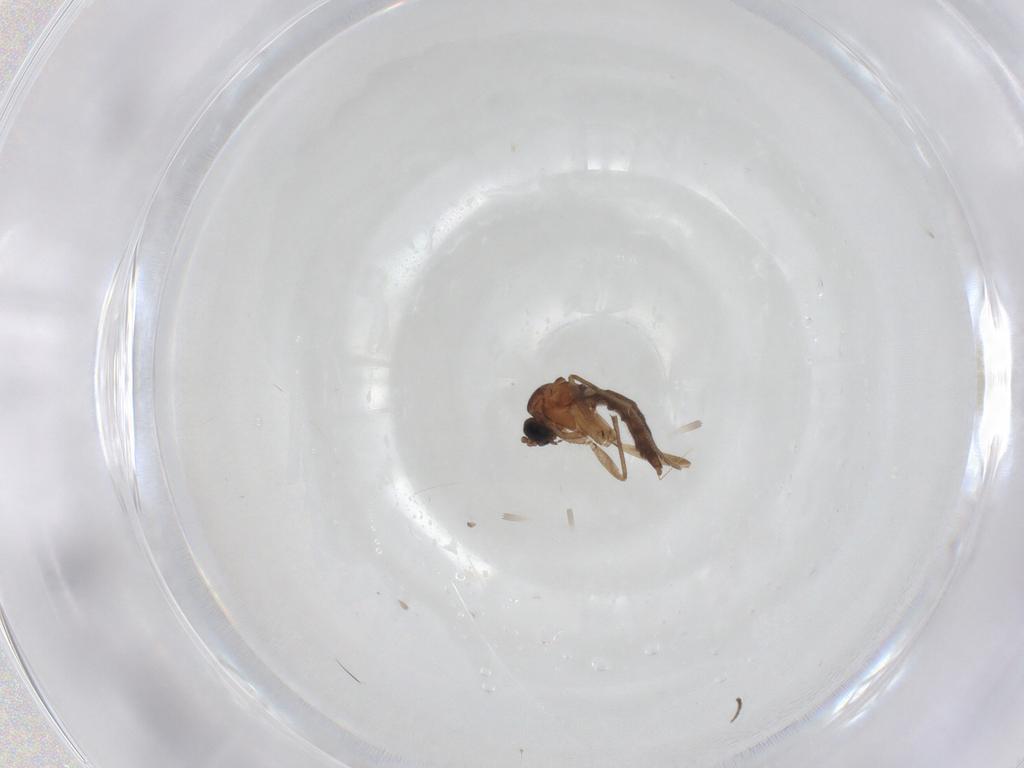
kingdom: Animalia
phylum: Arthropoda
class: Insecta
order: Diptera
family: Sciaridae
